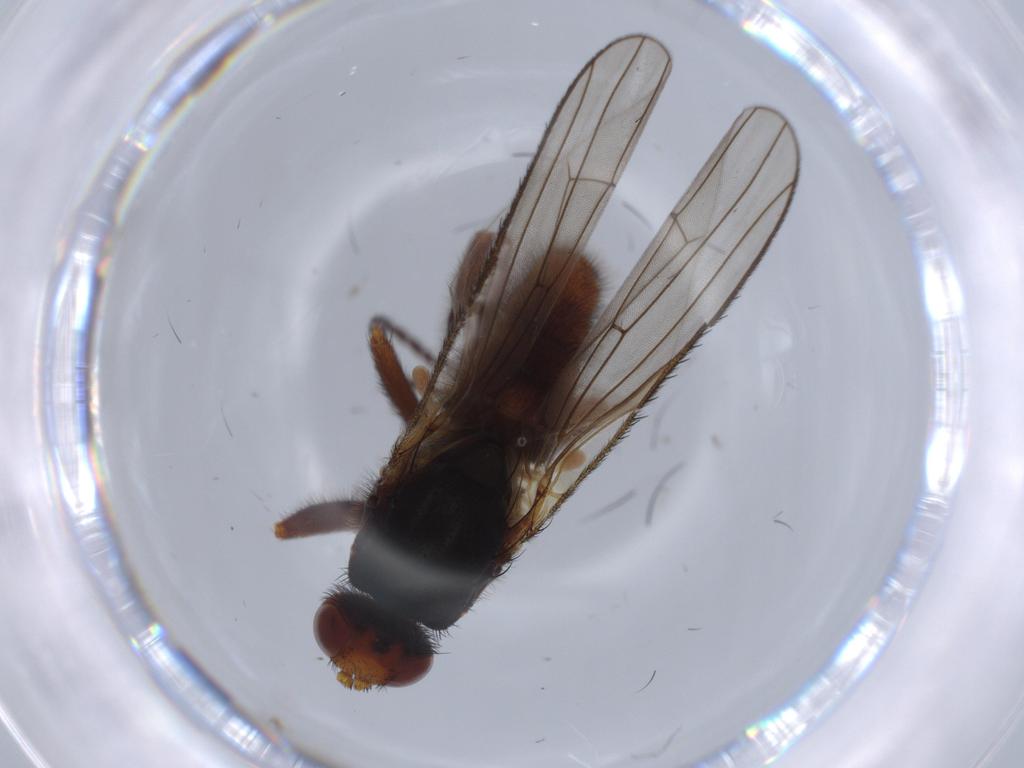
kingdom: Animalia
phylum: Arthropoda
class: Insecta
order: Diptera
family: Heleomyzidae
